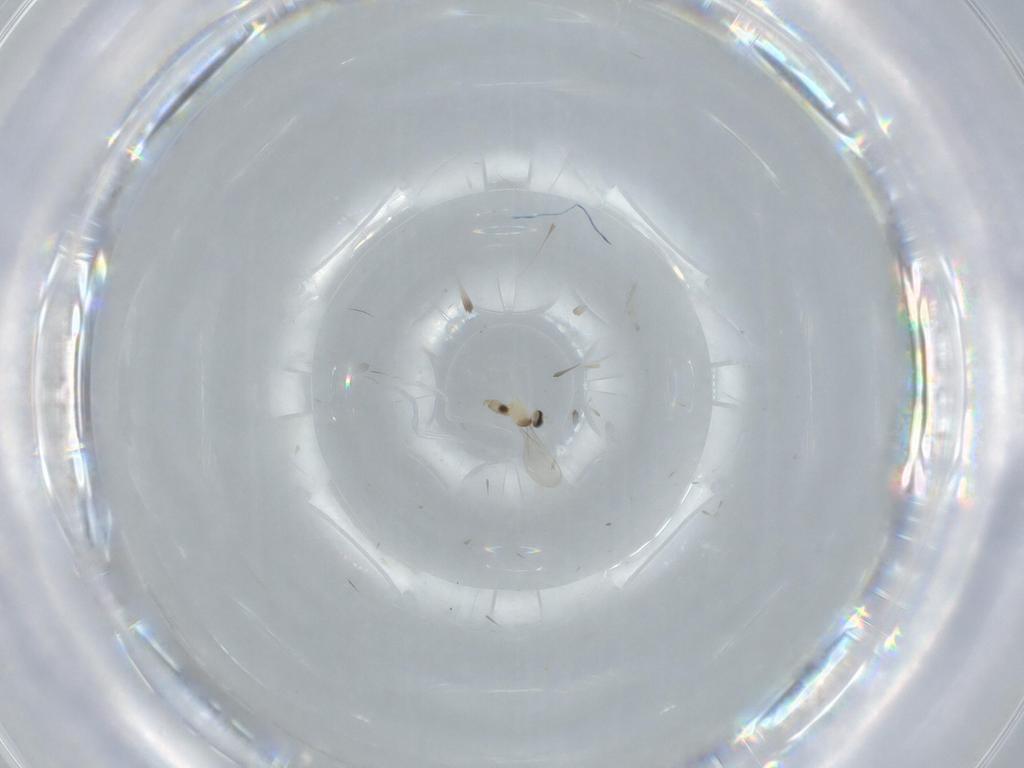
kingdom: Animalia
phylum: Arthropoda
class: Insecta
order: Diptera
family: Cecidomyiidae
